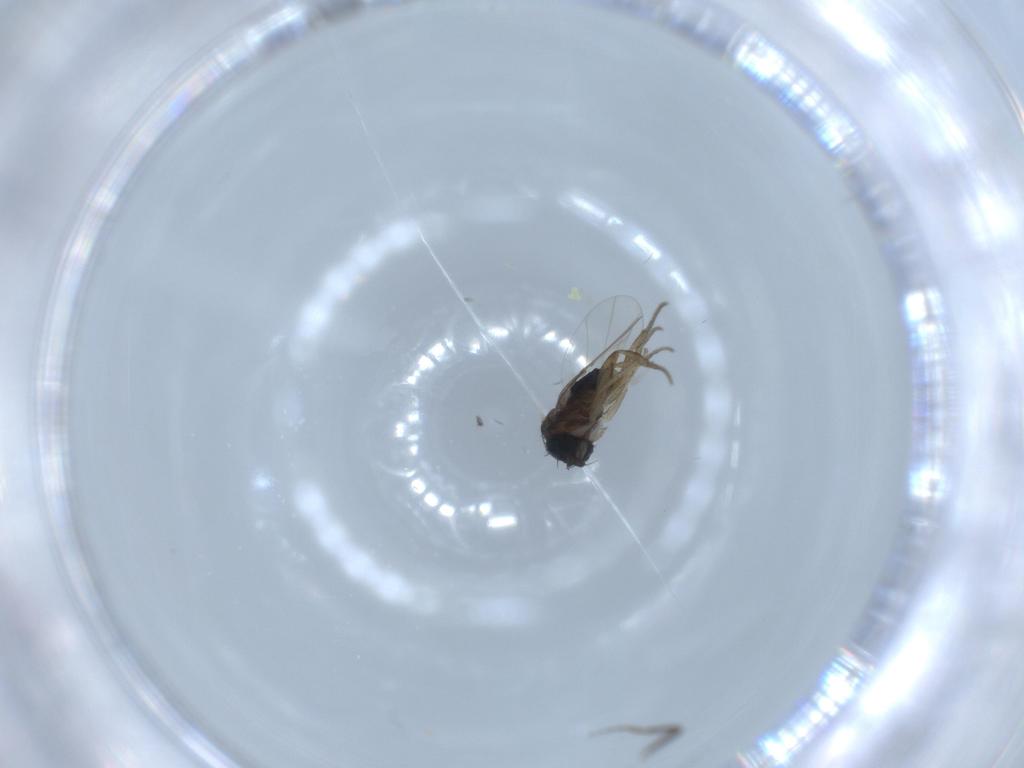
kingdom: Animalia
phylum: Arthropoda
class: Insecta
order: Diptera
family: Phoridae
